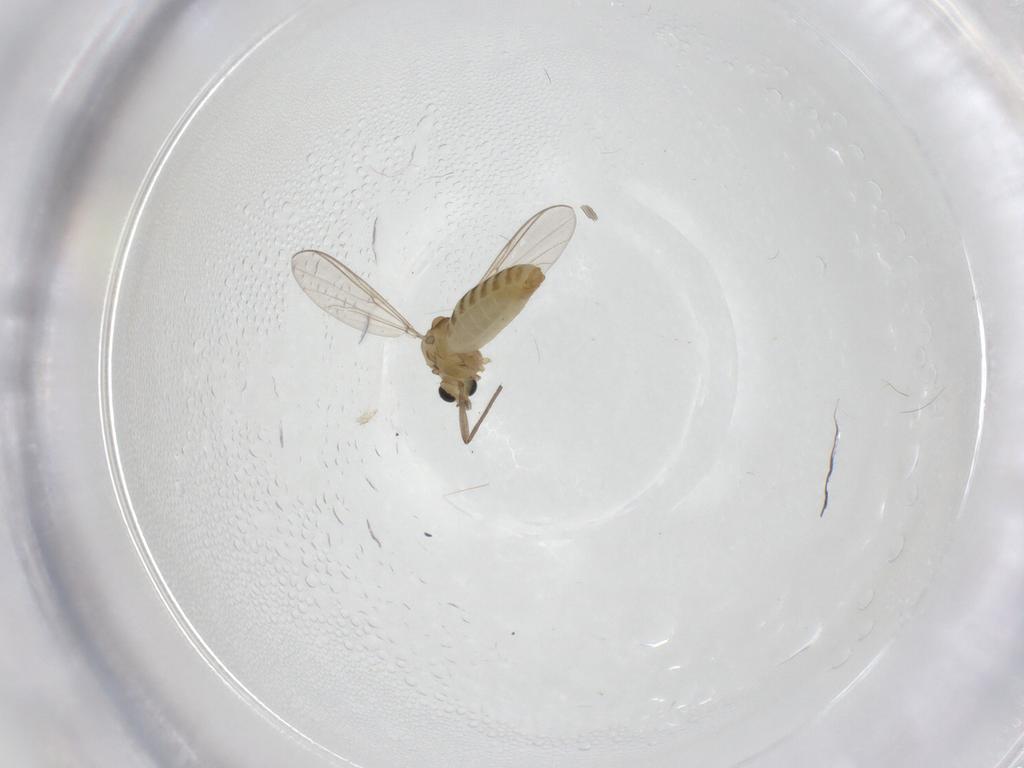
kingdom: Animalia
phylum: Arthropoda
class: Insecta
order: Diptera
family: Chironomidae
